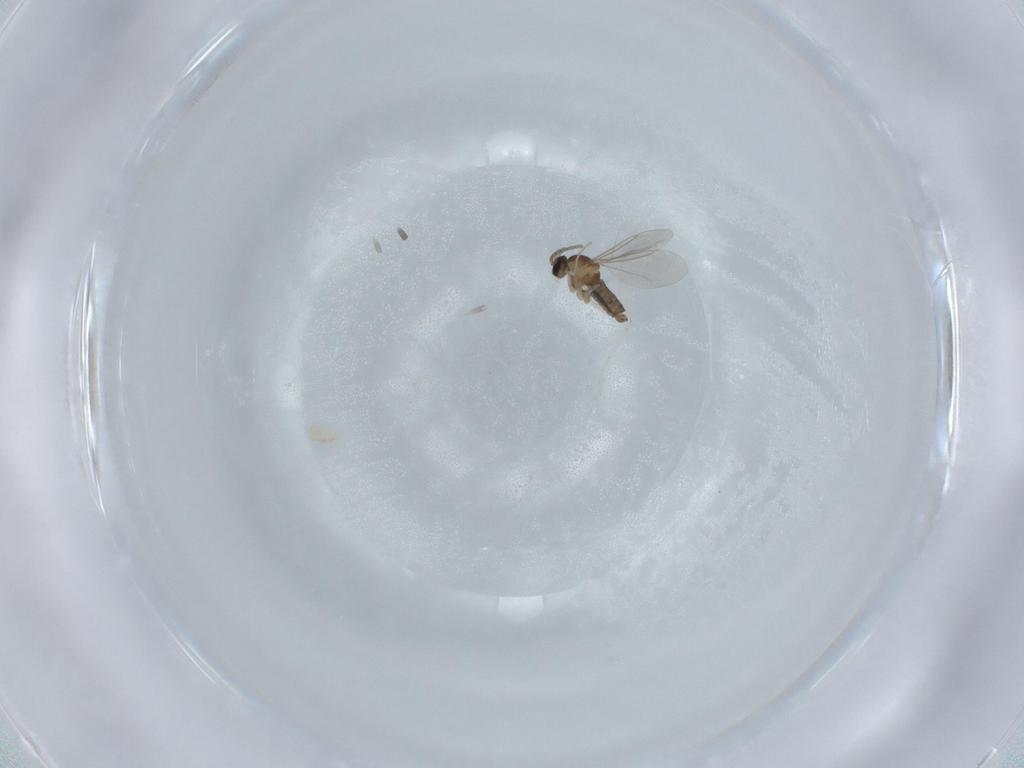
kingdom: Animalia
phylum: Arthropoda
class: Insecta
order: Diptera
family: Cecidomyiidae
